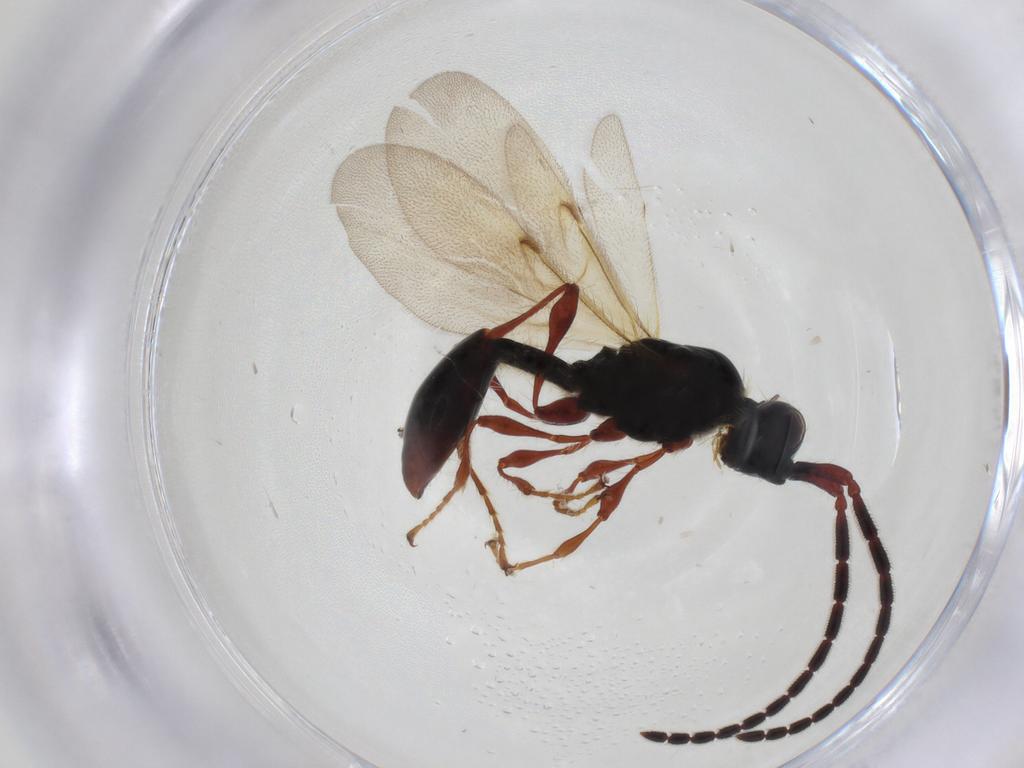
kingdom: Animalia
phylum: Arthropoda
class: Insecta
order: Hymenoptera
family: Diapriidae
